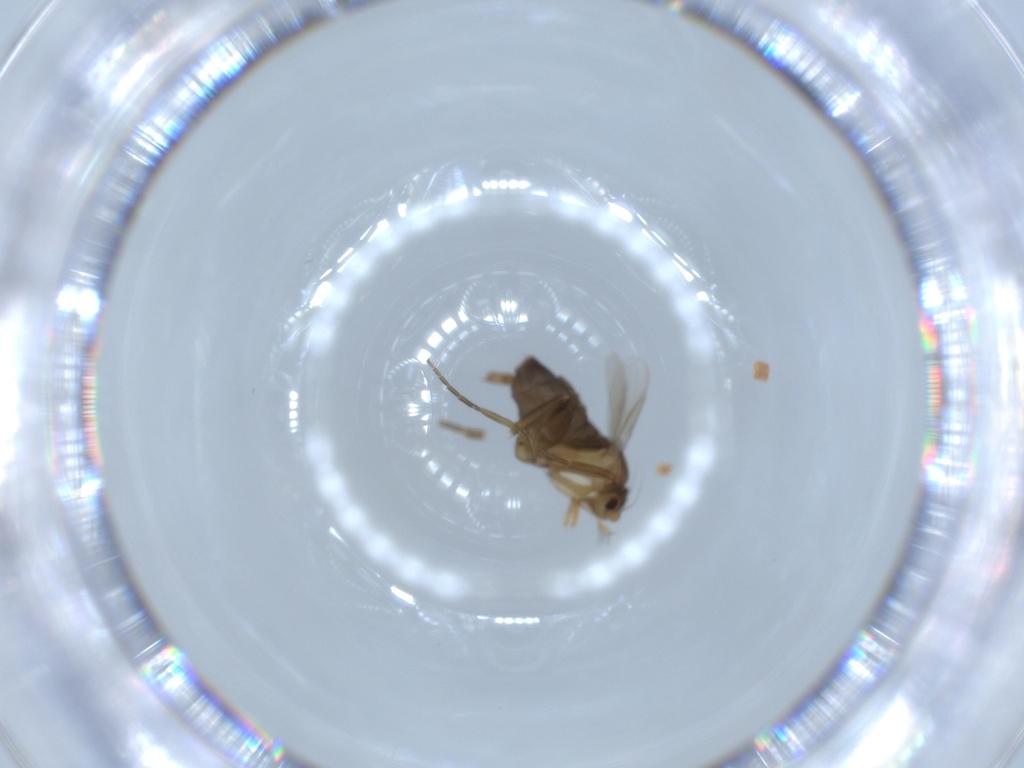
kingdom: Animalia
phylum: Arthropoda
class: Insecta
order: Diptera
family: Phoridae
